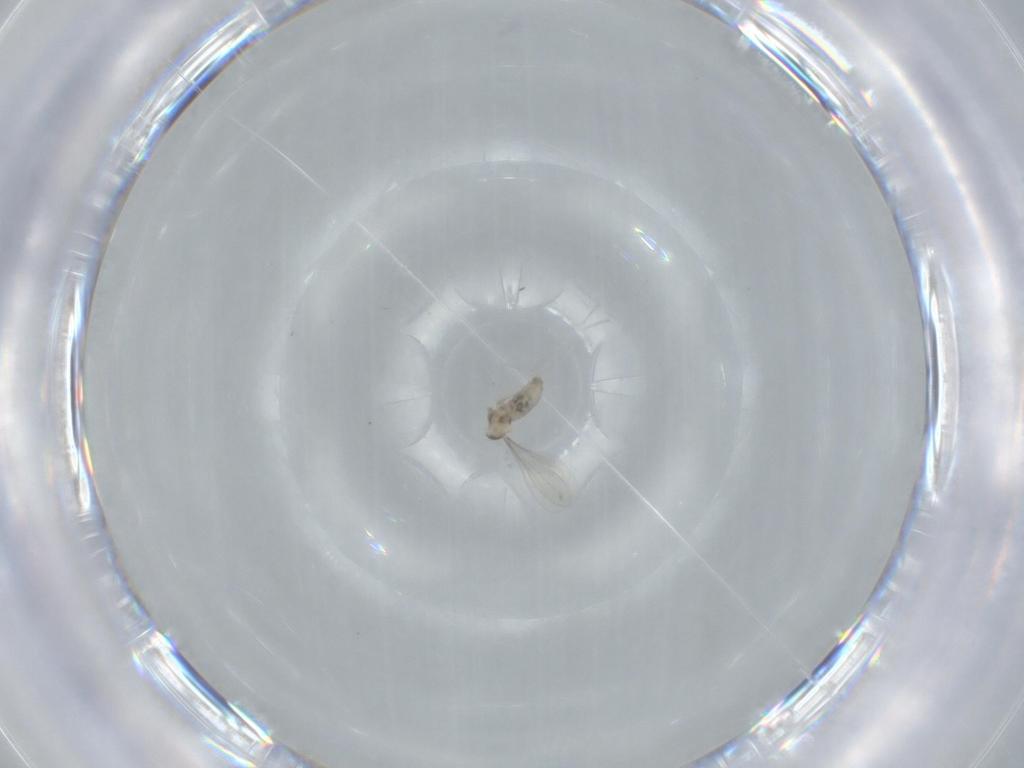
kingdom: Animalia
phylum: Arthropoda
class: Insecta
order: Diptera
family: Cecidomyiidae
